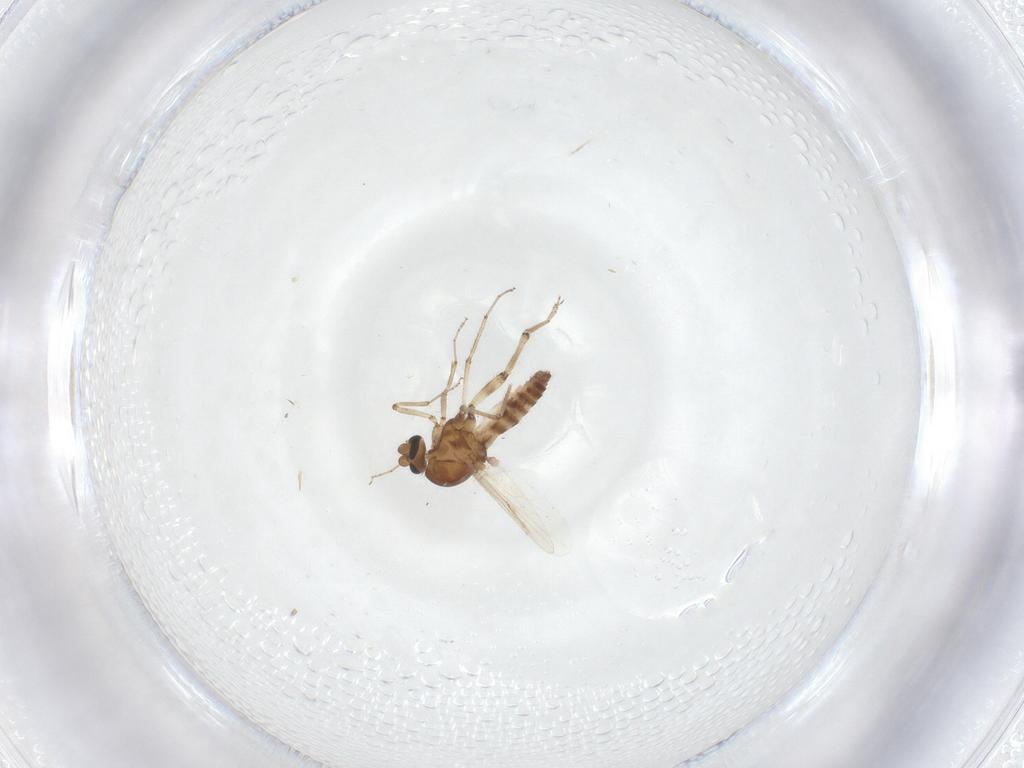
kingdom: Animalia
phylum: Arthropoda
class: Insecta
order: Diptera
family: Ceratopogonidae
